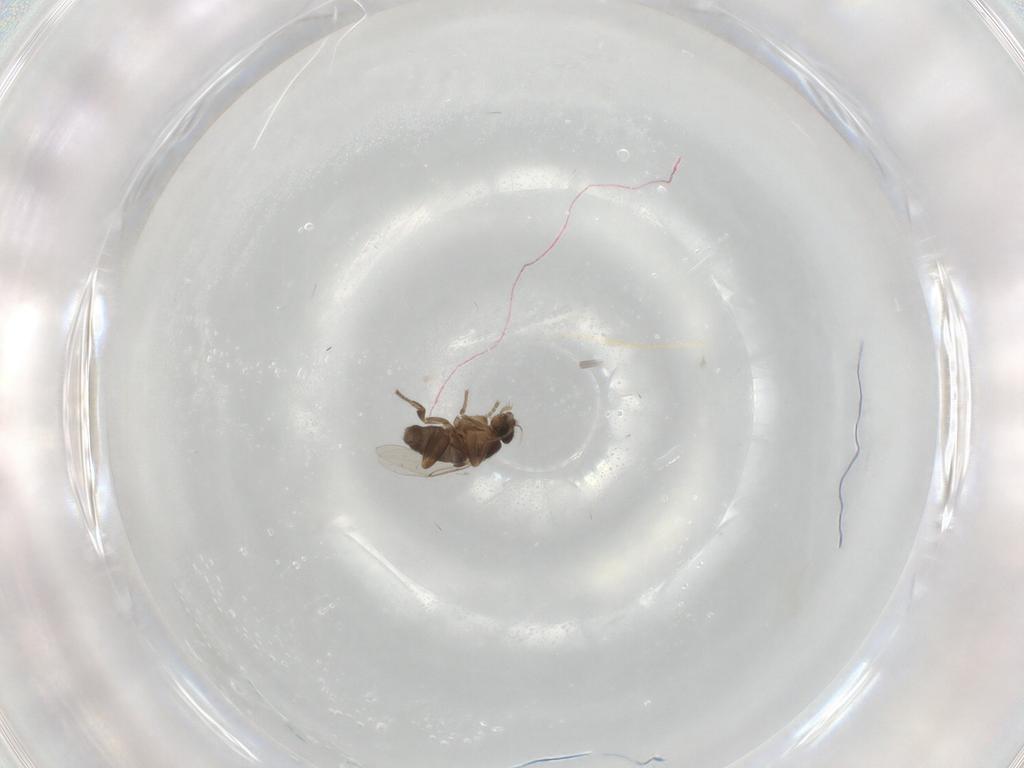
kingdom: Animalia
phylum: Arthropoda
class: Insecta
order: Diptera
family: Phoridae
